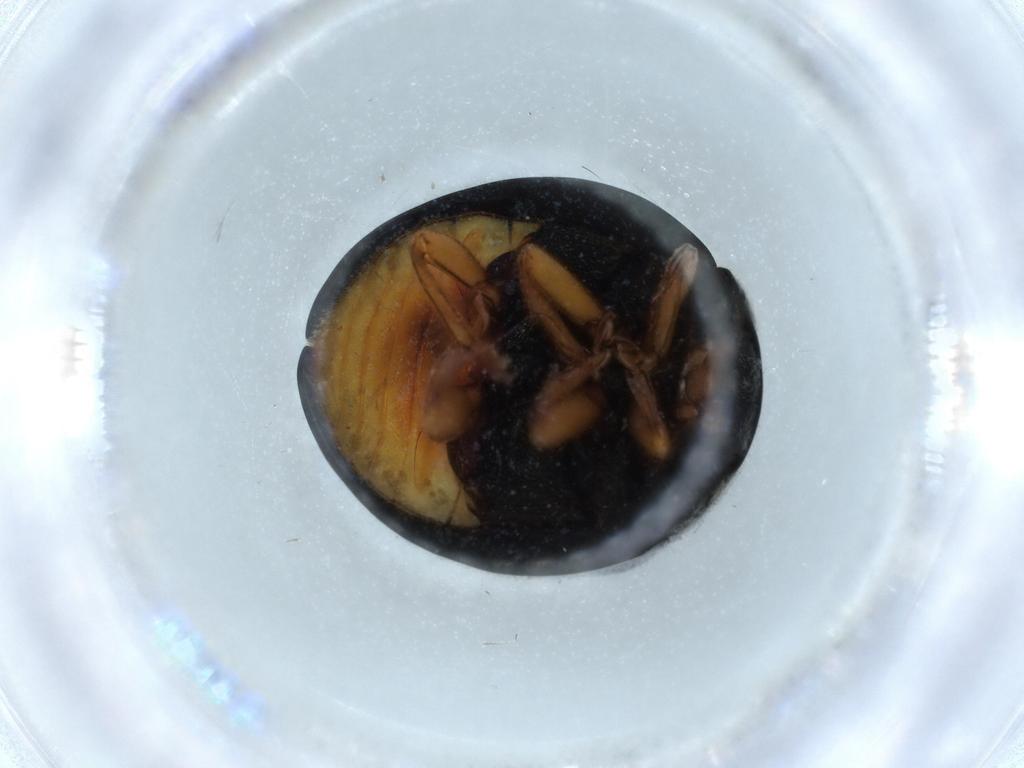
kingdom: Animalia
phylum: Arthropoda
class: Insecta
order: Coleoptera
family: Coccinellidae
